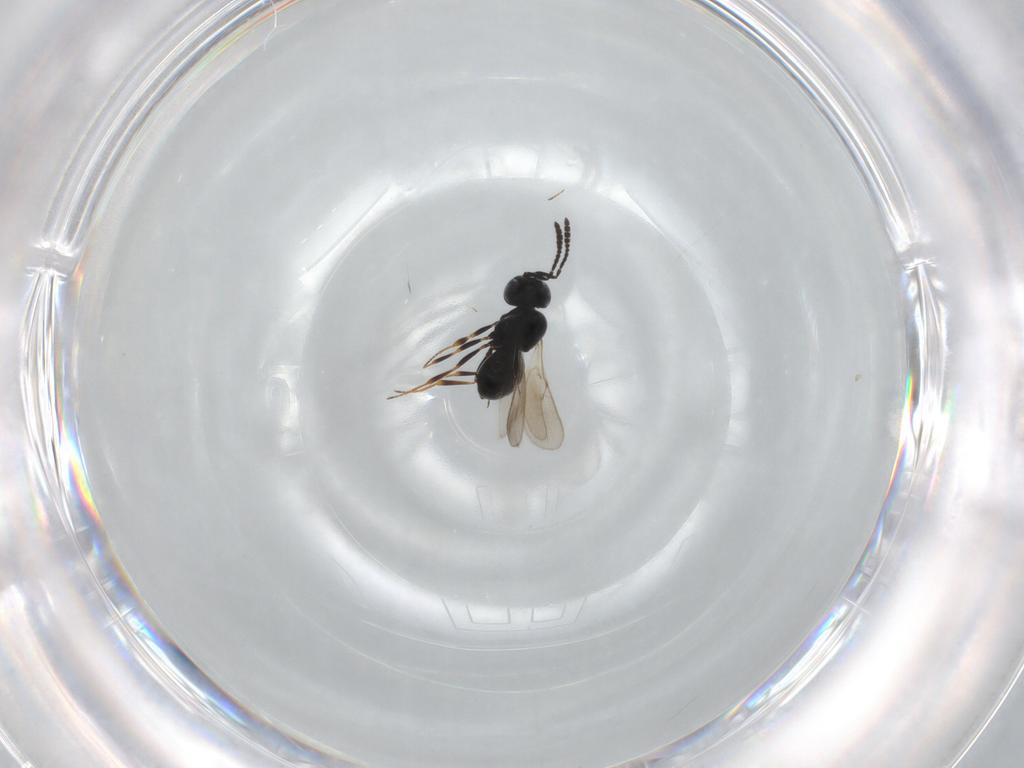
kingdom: Animalia
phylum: Arthropoda
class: Insecta
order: Hymenoptera
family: Scelionidae
